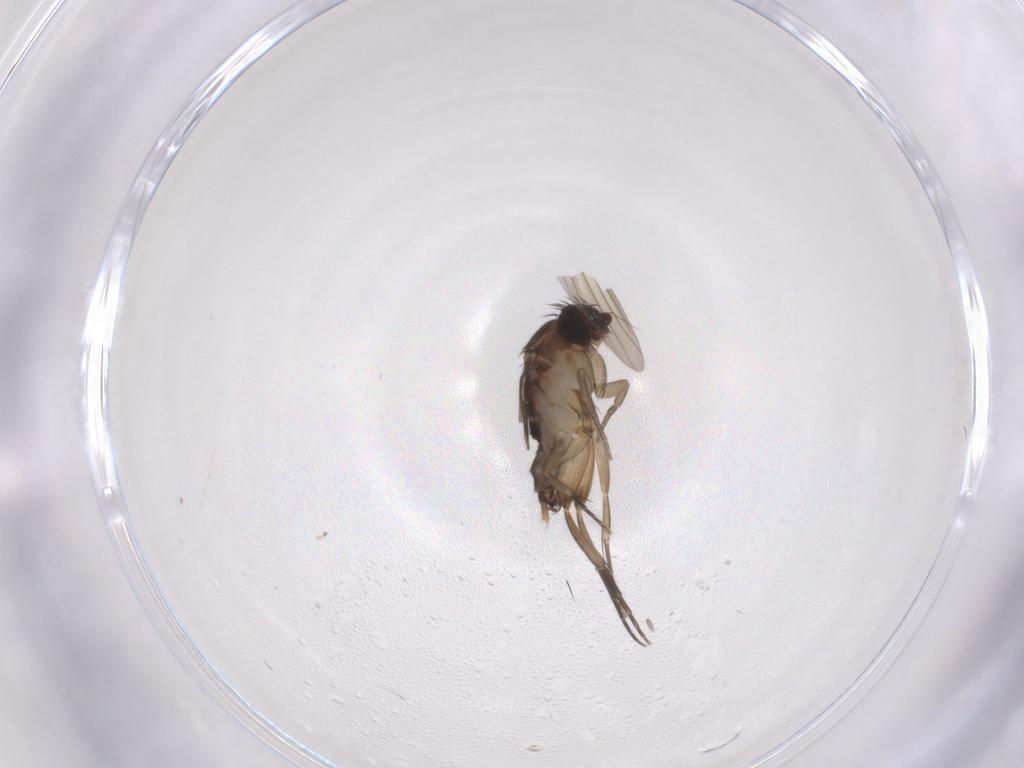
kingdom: Animalia
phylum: Arthropoda
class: Insecta
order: Diptera
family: Phoridae
